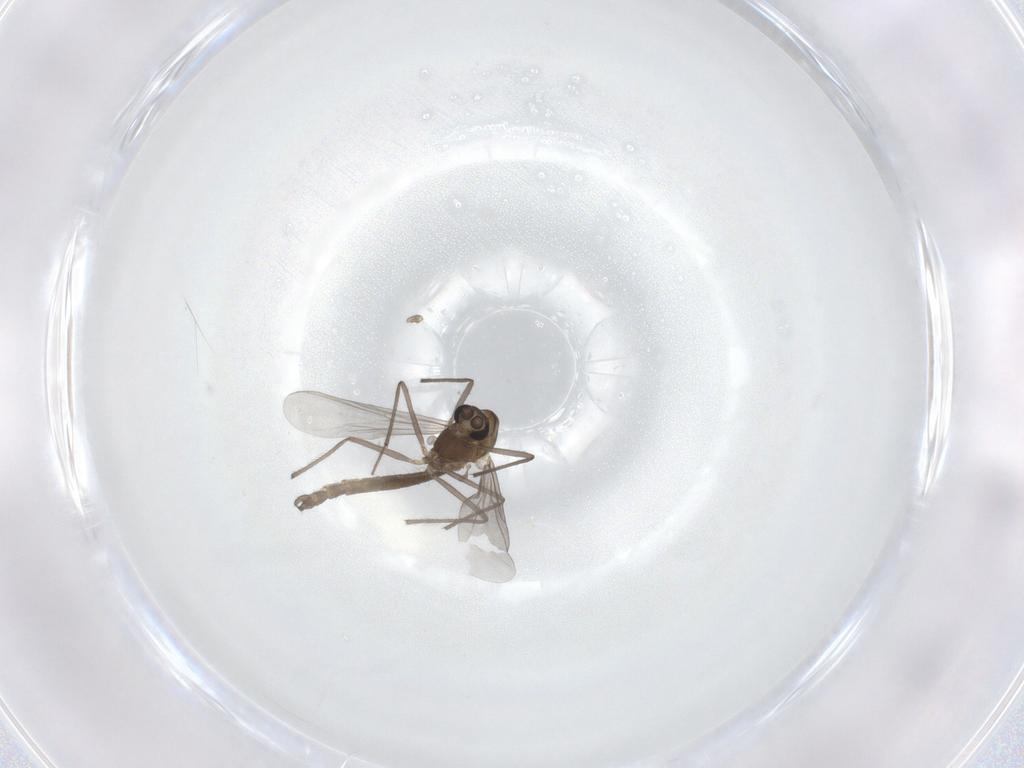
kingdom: Animalia
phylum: Arthropoda
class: Insecta
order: Diptera
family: Chironomidae
